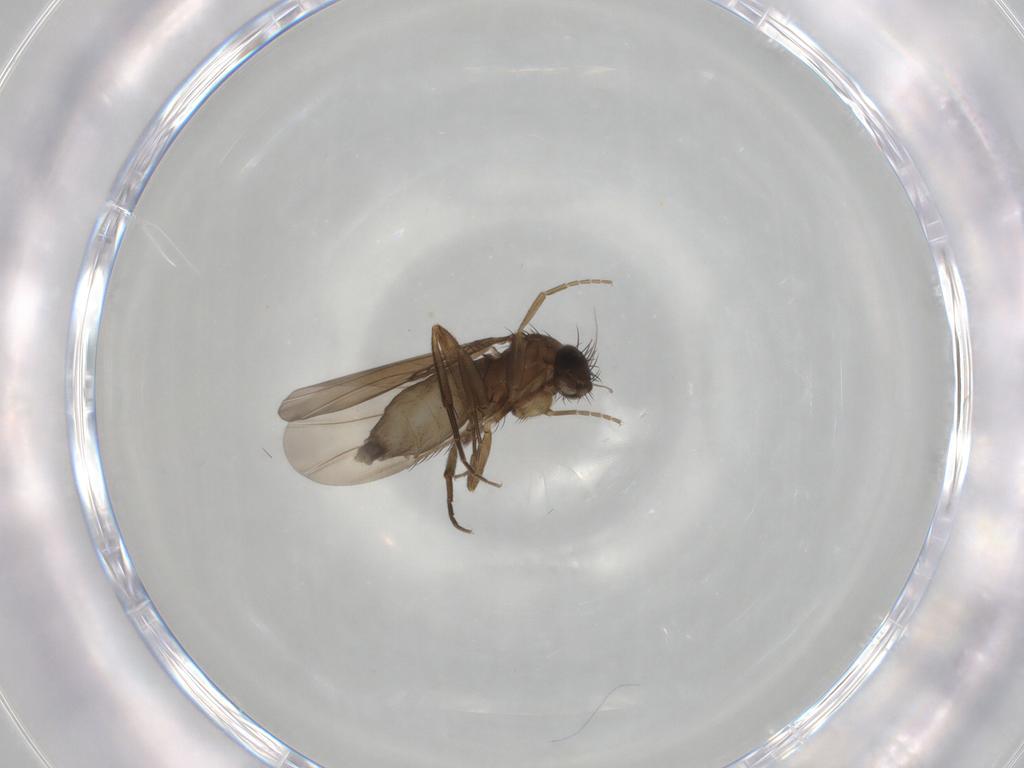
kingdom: Animalia
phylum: Arthropoda
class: Insecta
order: Diptera
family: Phoridae
